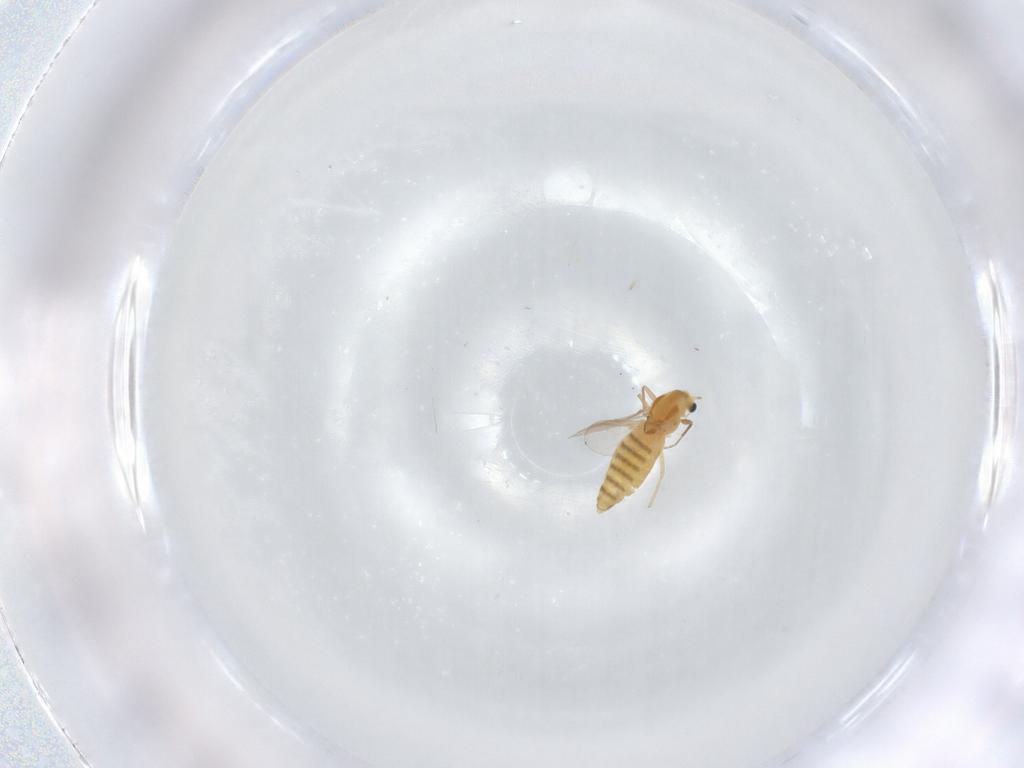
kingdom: Animalia
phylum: Arthropoda
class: Insecta
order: Diptera
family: Chironomidae
